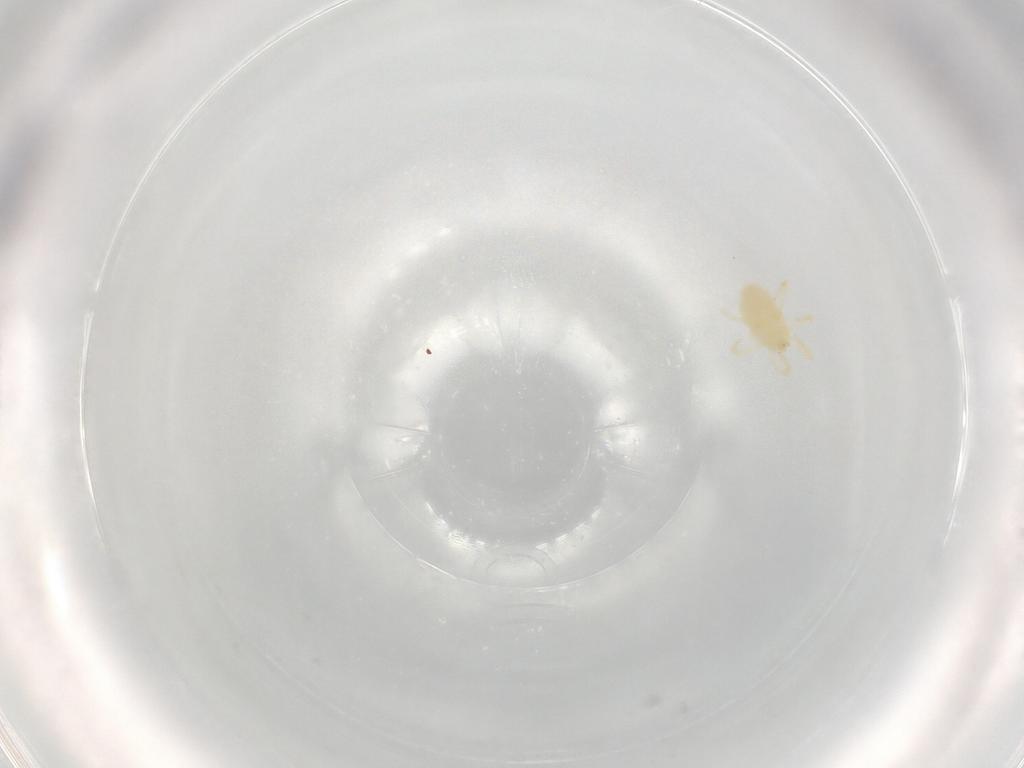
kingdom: Animalia
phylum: Arthropoda
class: Arachnida
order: Trombidiformes
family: Trombidiidae
